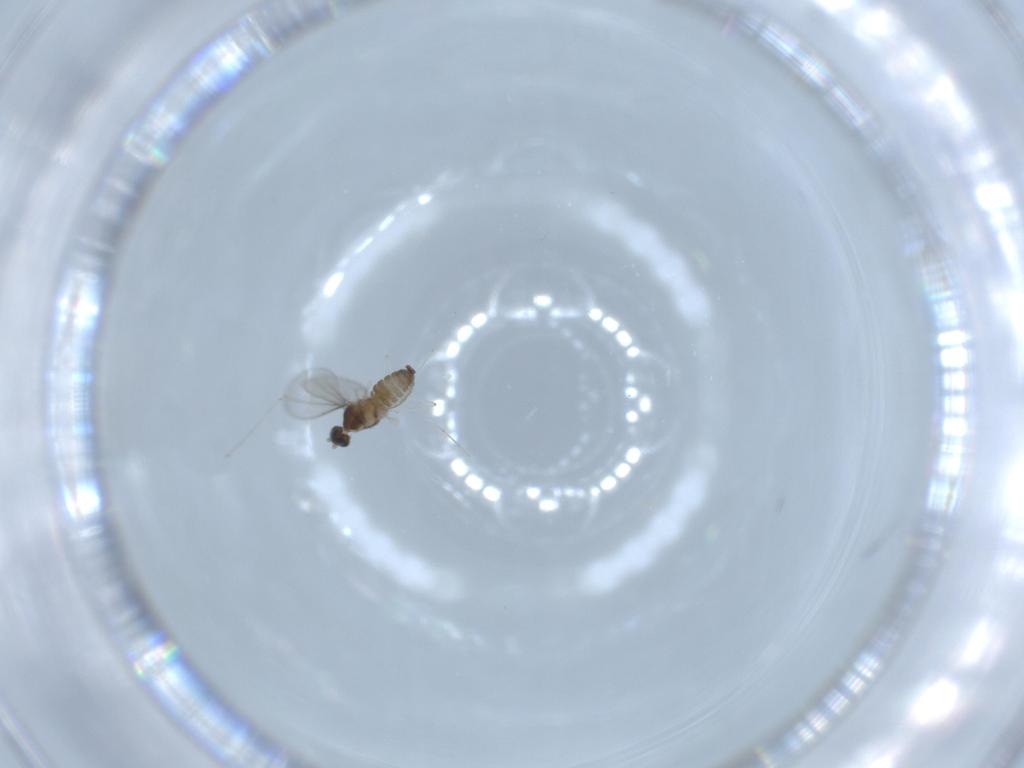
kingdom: Animalia
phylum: Arthropoda
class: Insecta
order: Diptera
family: Cecidomyiidae
